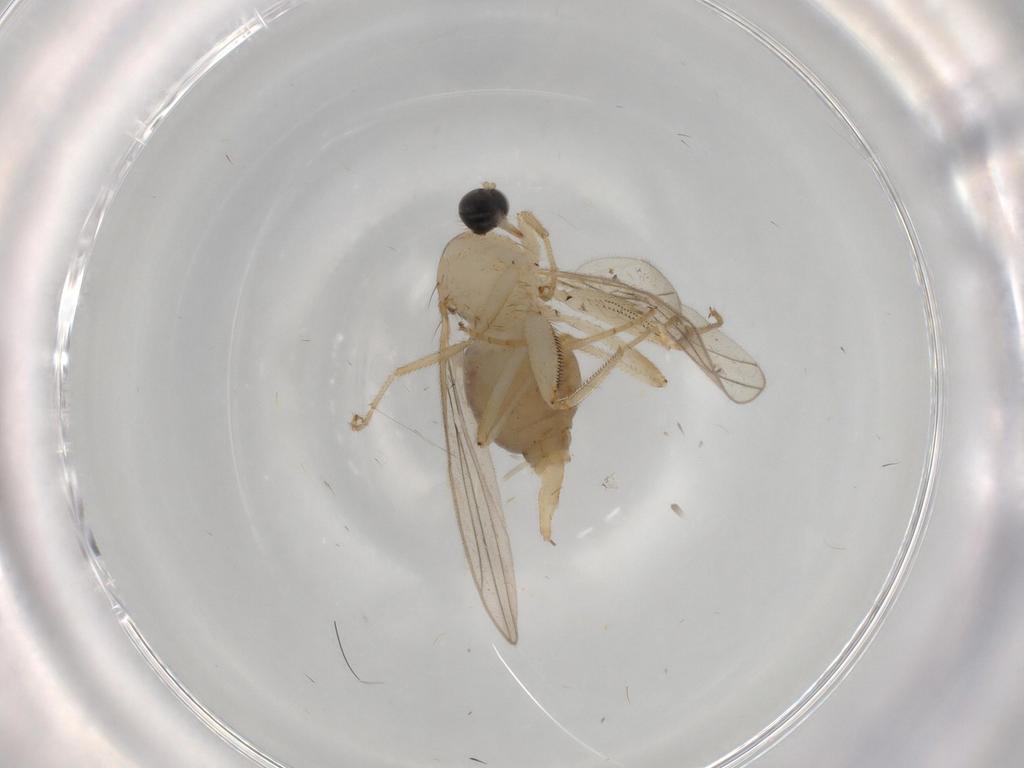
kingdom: Animalia
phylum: Arthropoda
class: Insecta
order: Diptera
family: Hybotidae
